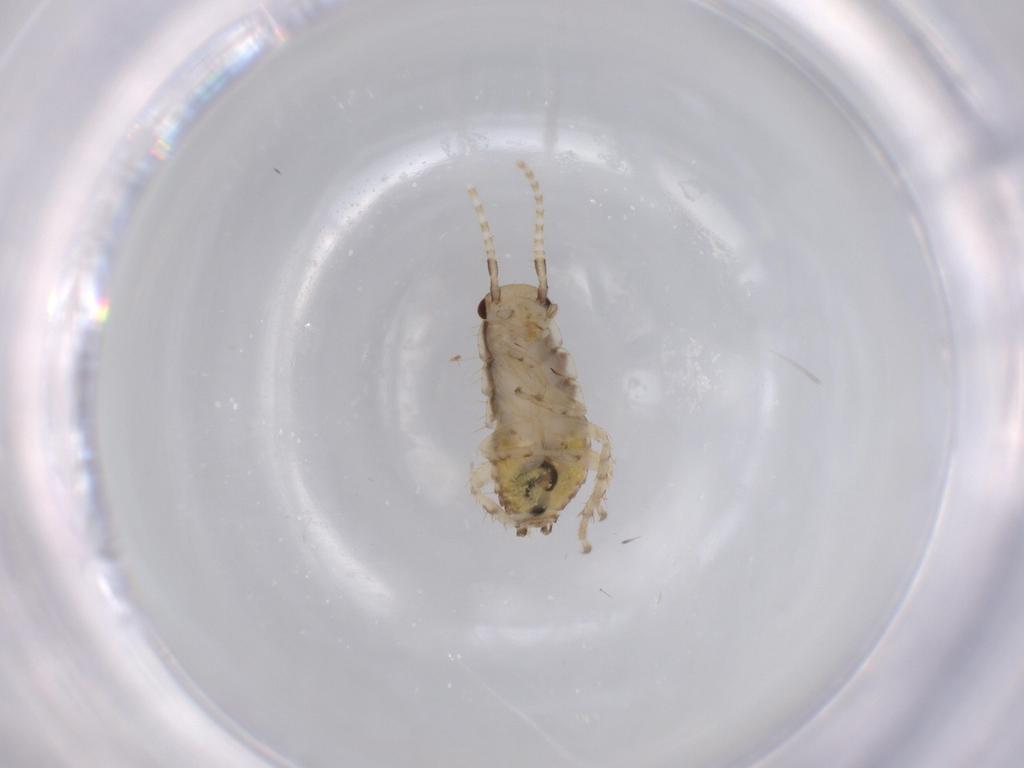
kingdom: Animalia
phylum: Arthropoda
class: Insecta
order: Blattodea
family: Ectobiidae
